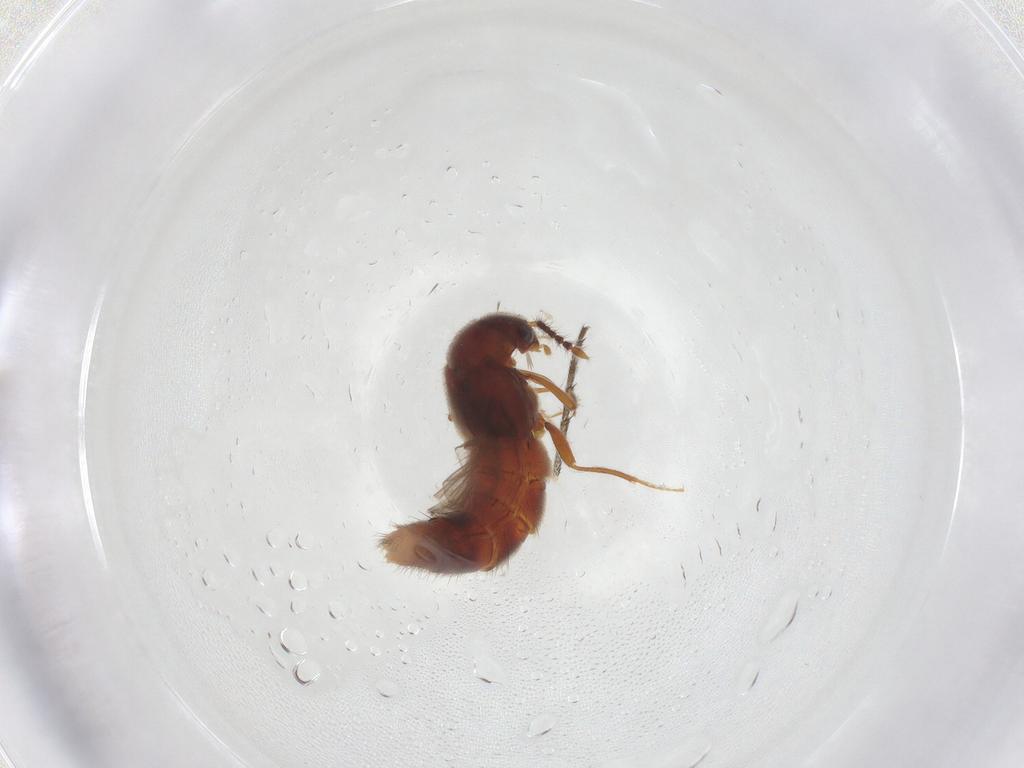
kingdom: Animalia
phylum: Arthropoda
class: Insecta
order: Coleoptera
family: Staphylinidae
